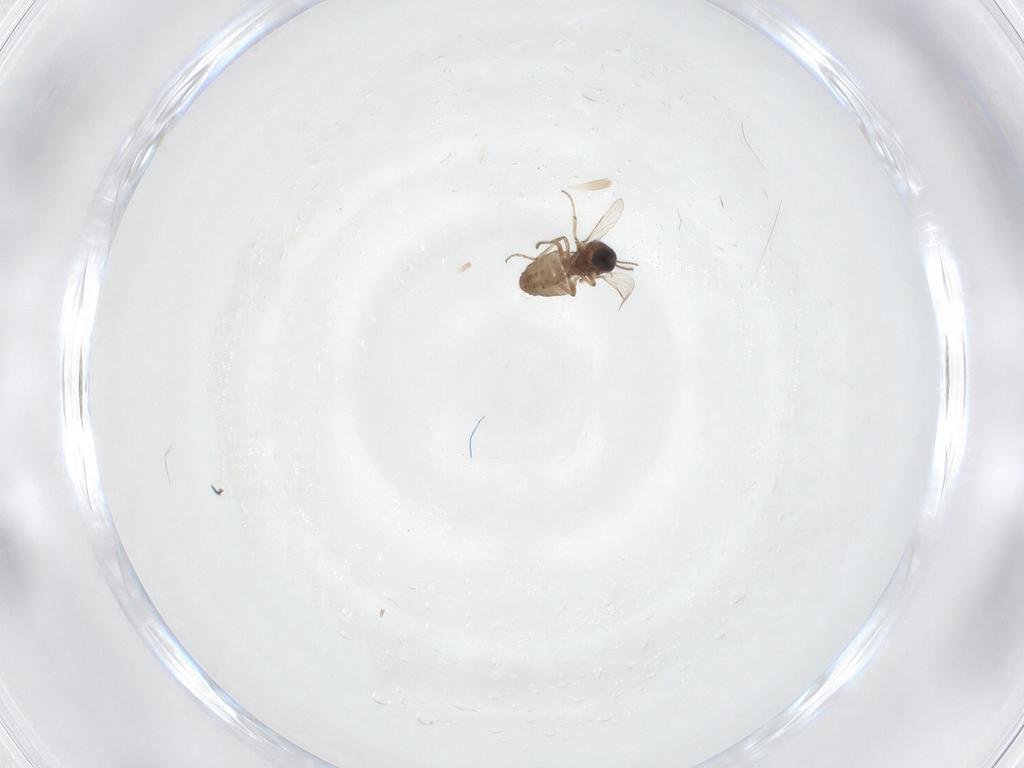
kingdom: Animalia
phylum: Arthropoda
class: Insecta
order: Diptera
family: Ceratopogonidae
